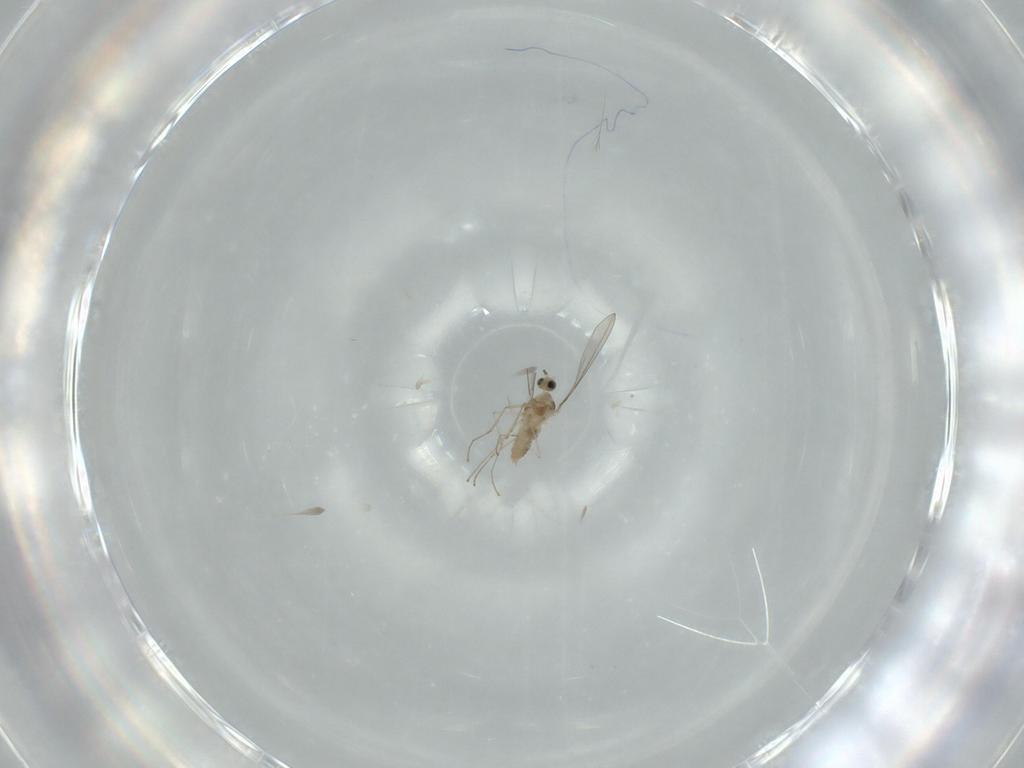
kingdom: Animalia
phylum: Arthropoda
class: Insecta
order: Diptera
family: Cecidomyiidae
